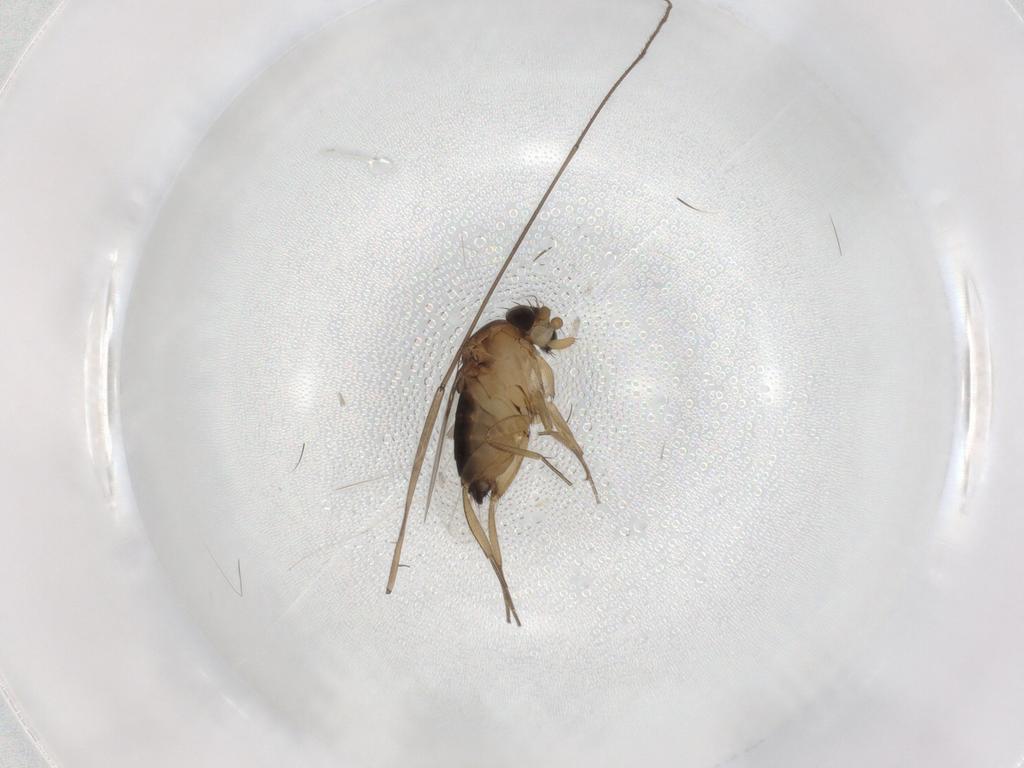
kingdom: Animalia
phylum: Arthropoda
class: Insecta
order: Diptera
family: Limoniidae
